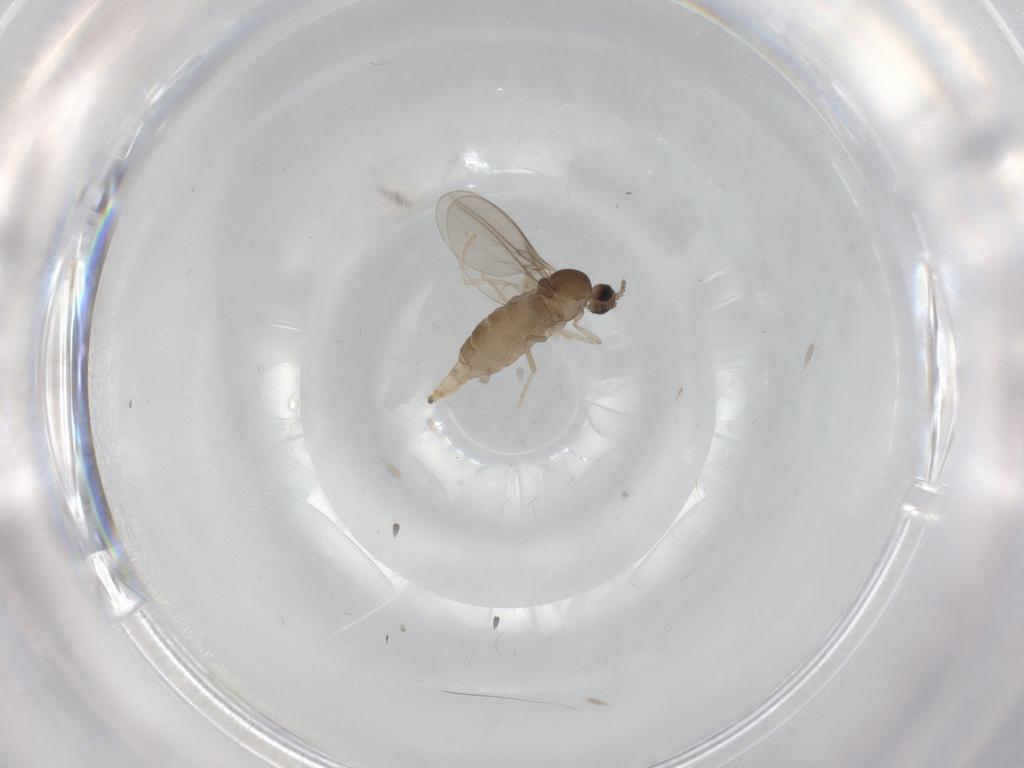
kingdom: Animalia
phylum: Arthropoda
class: Insecta
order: Diptera
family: Cecidomyiidae
